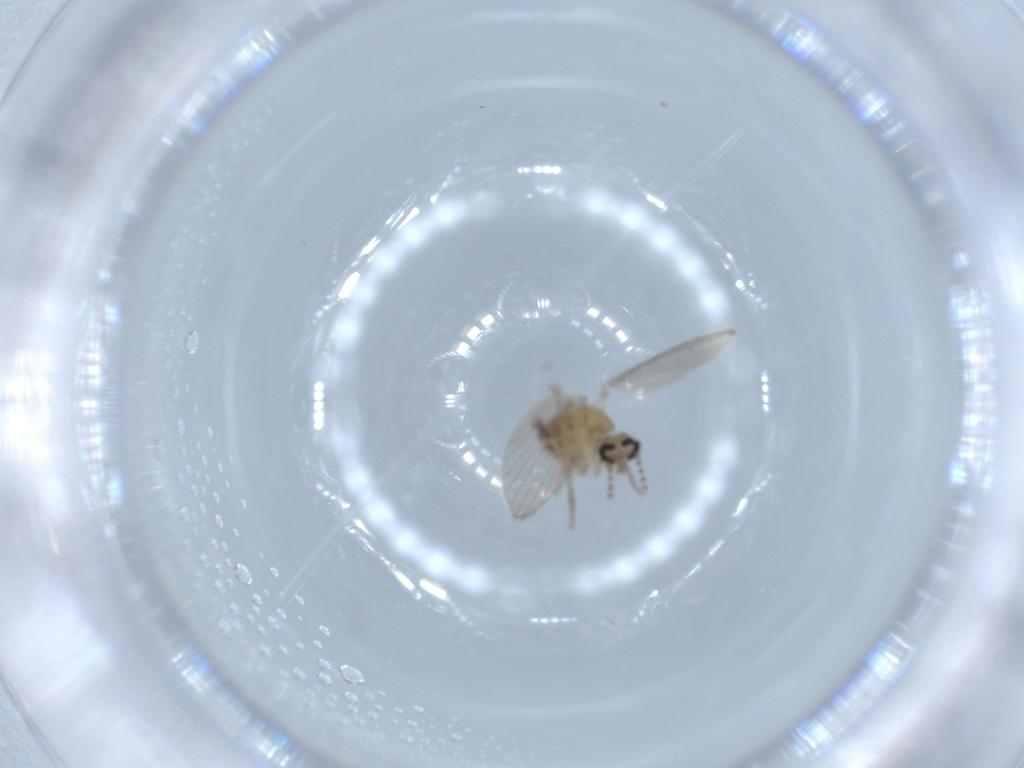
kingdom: Animalia
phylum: Arthropoda
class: Insecta
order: Diptera
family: Psychodidae
